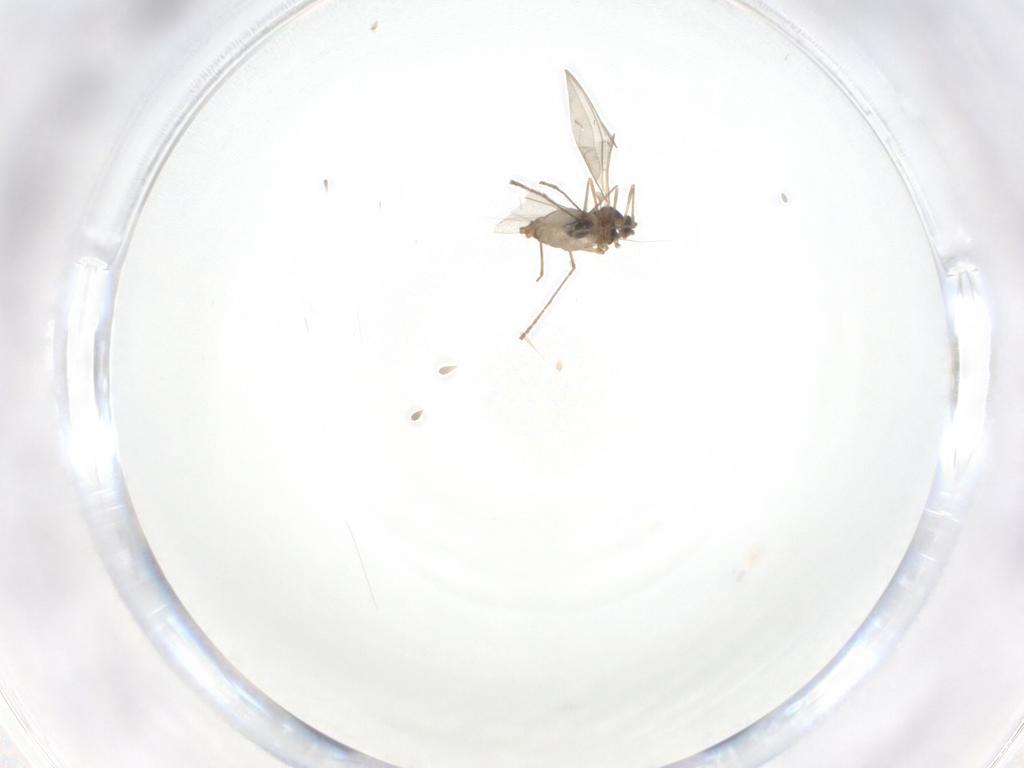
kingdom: Animalia
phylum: Arthropoda
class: Insecta
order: Diptera
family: Cecidomyiidae
